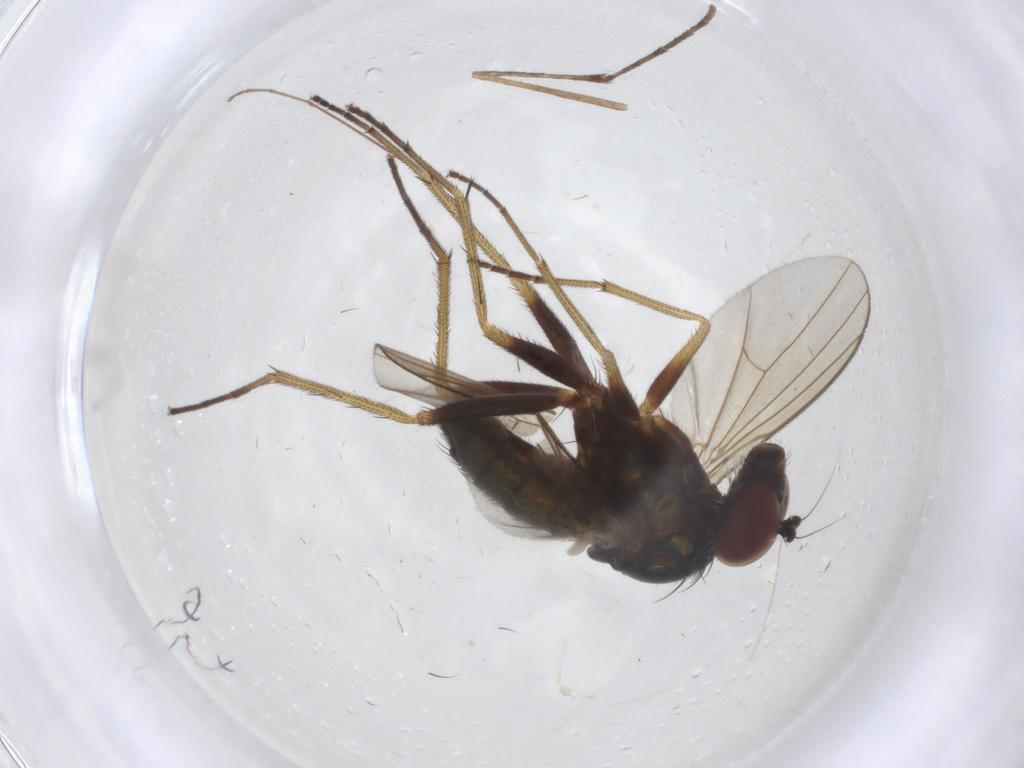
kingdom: Animalia
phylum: Arthropoda
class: Insecta
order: Diptera
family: Dolichopodidae
